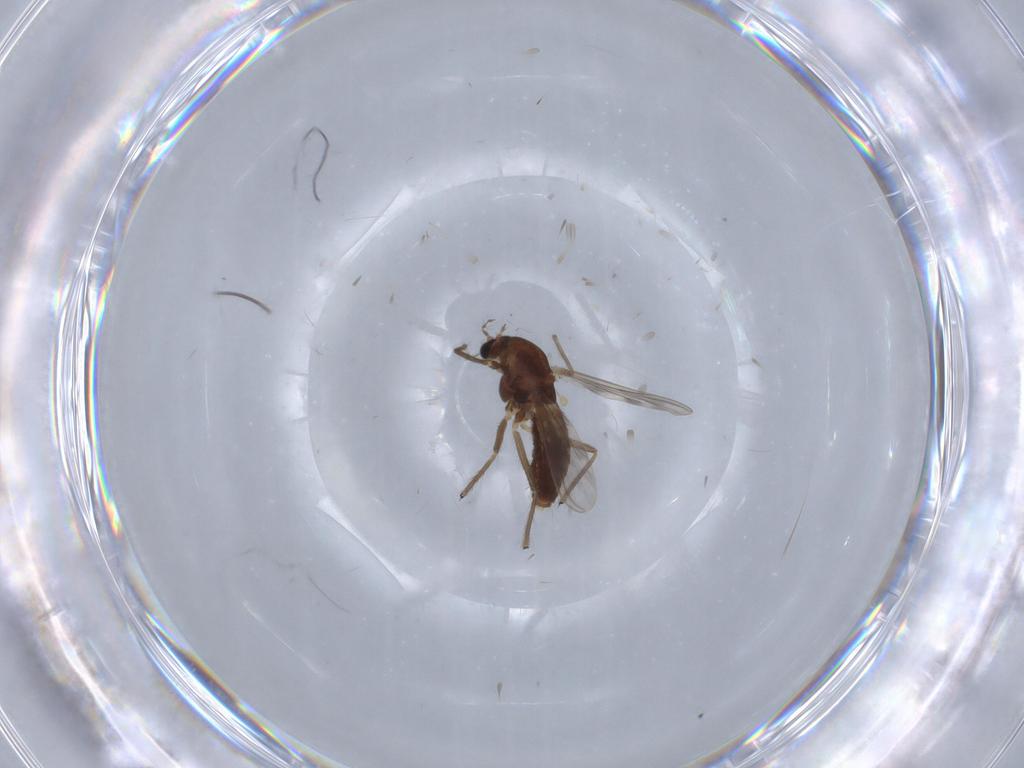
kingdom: Animalia
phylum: Arthropoda
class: Insecta
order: Diptera
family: Chironomidae
